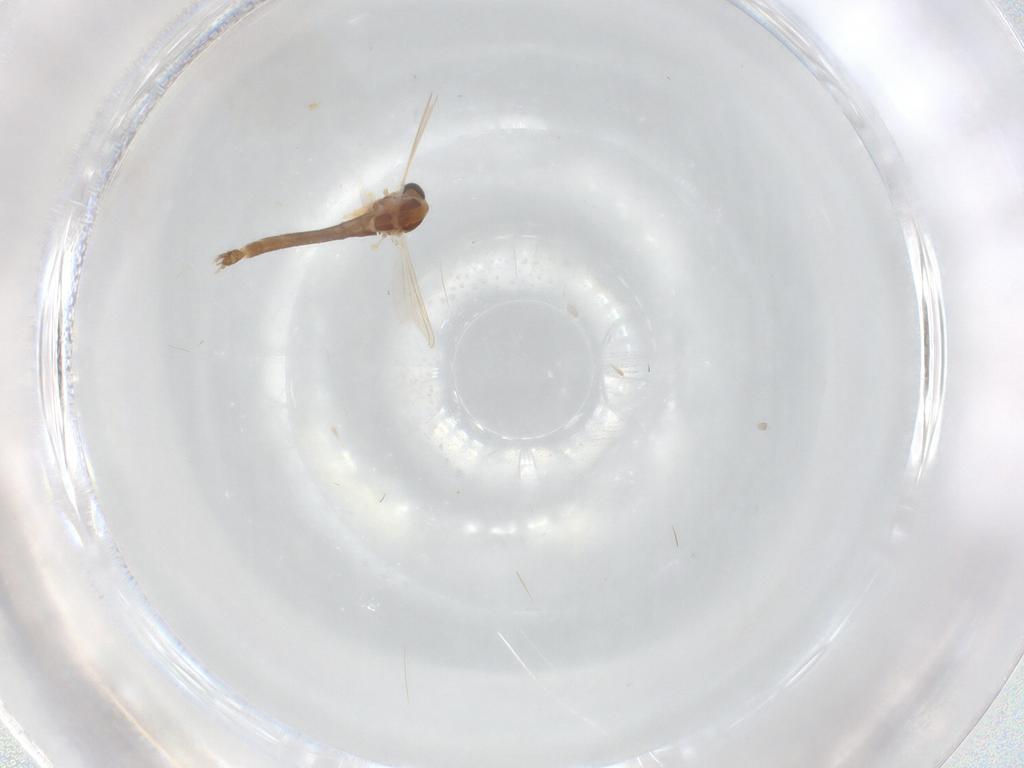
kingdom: Animalia
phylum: Arthropoda
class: Insecta
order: Diptera
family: Chironomidae
